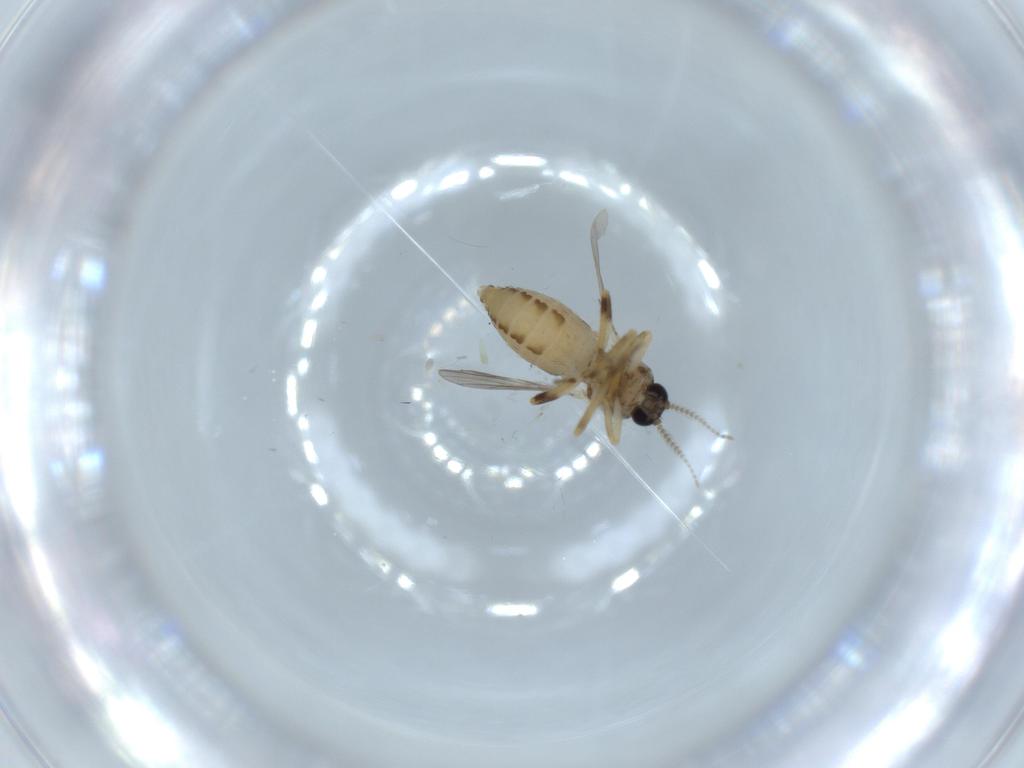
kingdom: Animalia
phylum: Arthropoda
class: Insecta
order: Diptera
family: Ceratopogonidae
